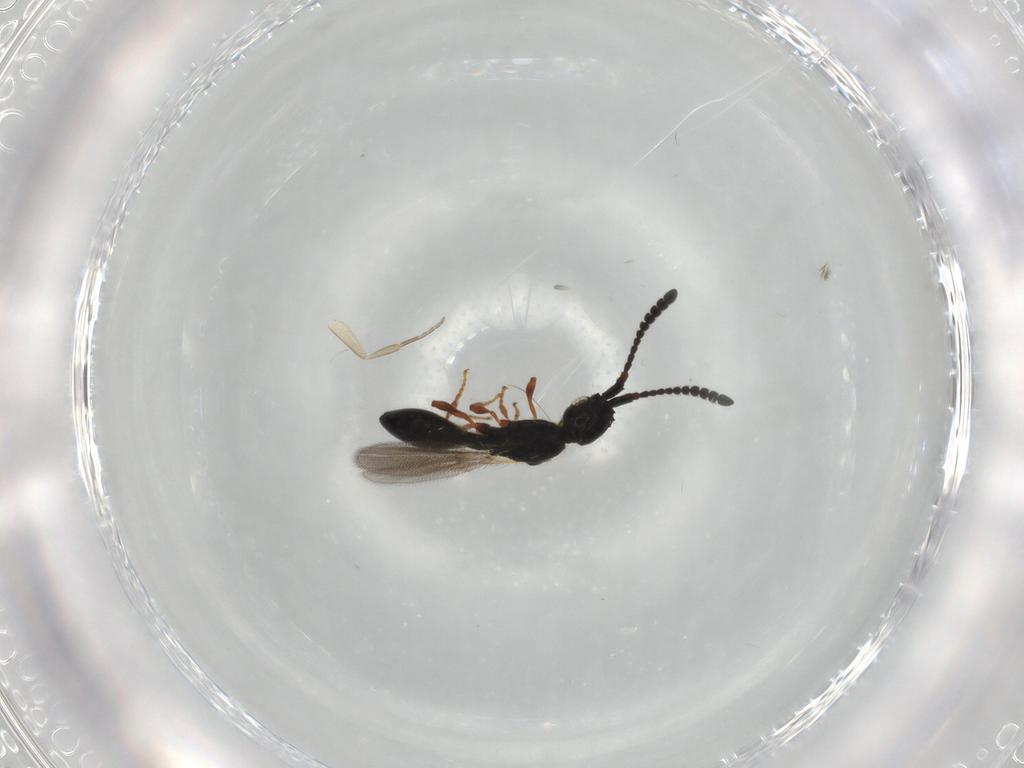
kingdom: Animalia
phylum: Arthropoda
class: Insecta
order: Hymenoptera
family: Diapriidae
